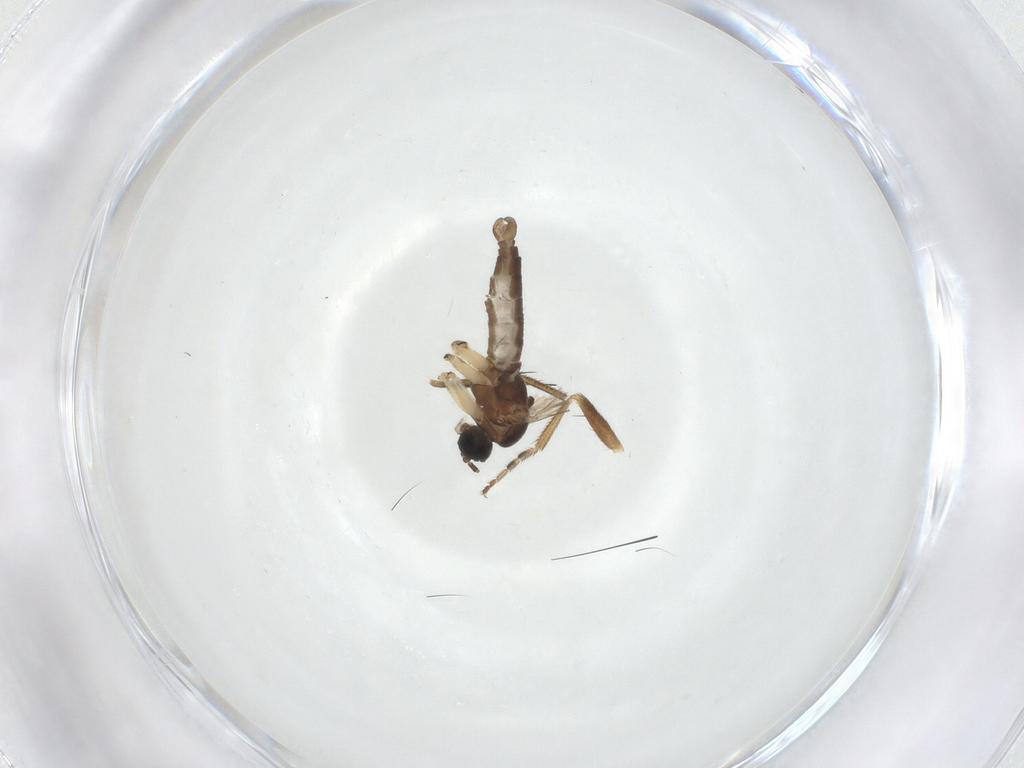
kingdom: Animalia
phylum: Arthropoda
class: Insecta
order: Diptera
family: Sciaridae
